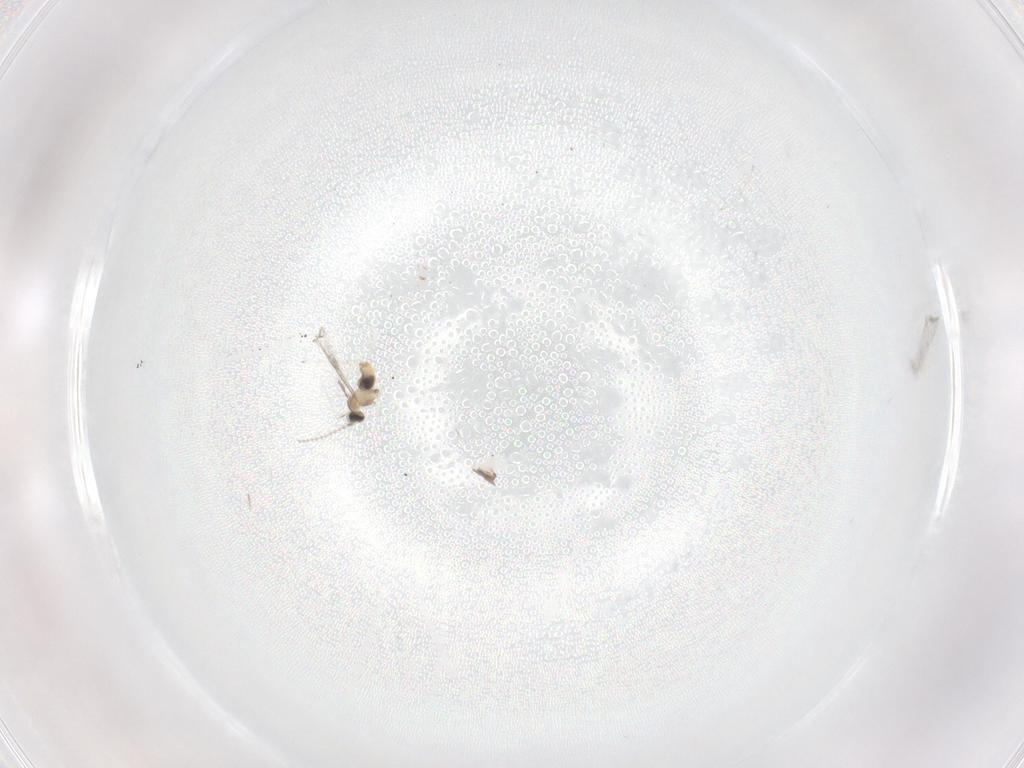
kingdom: Animalia
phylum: Arthropoda
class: Insecta
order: Diptera
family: Cecidomyiidae
